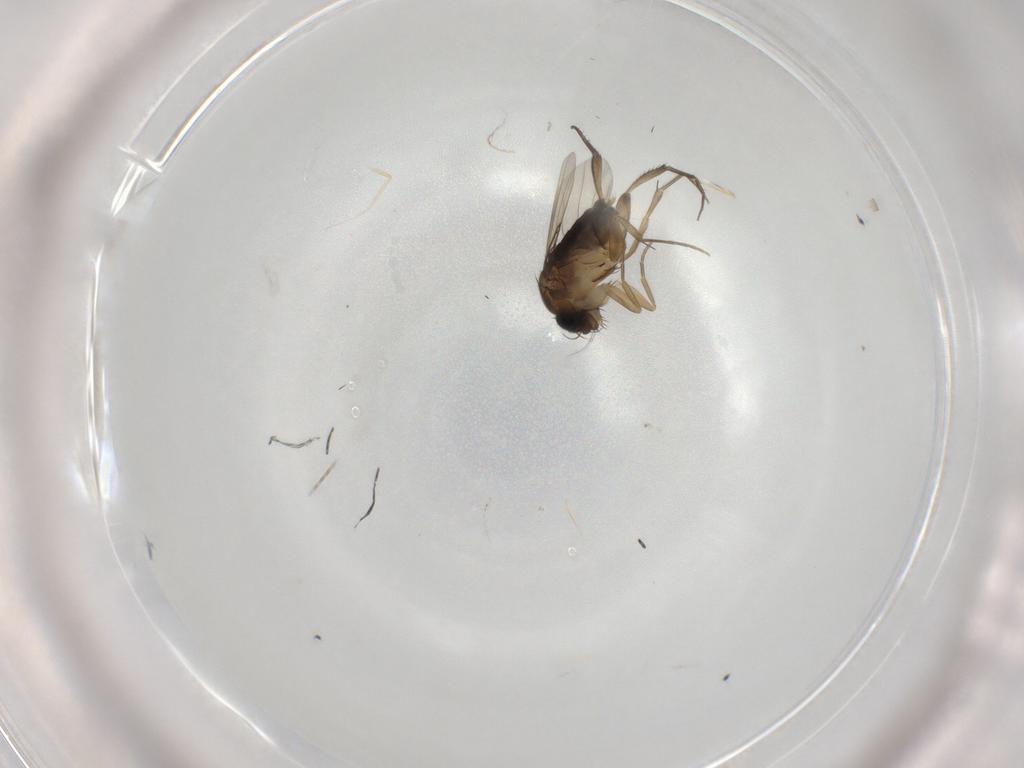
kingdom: Animalia
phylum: Arthropoda
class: Insecta
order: Diptera
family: Phoridae
